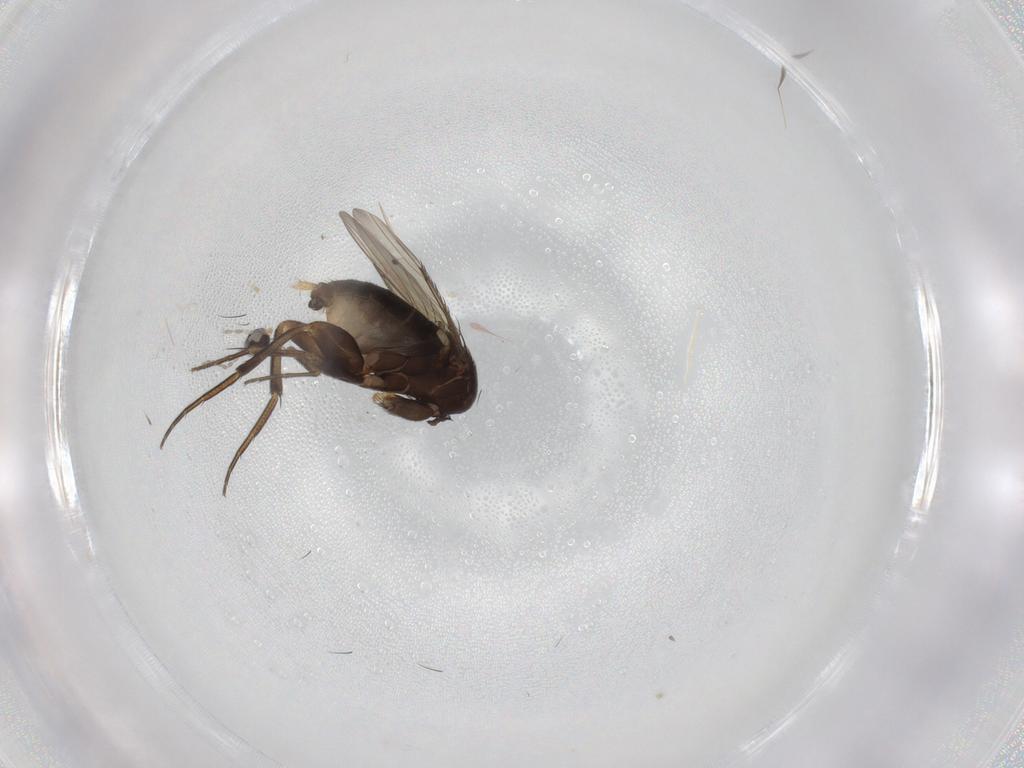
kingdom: Animalia
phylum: Arthropoda
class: Insecta
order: Diptera
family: Cecidomyiidae
